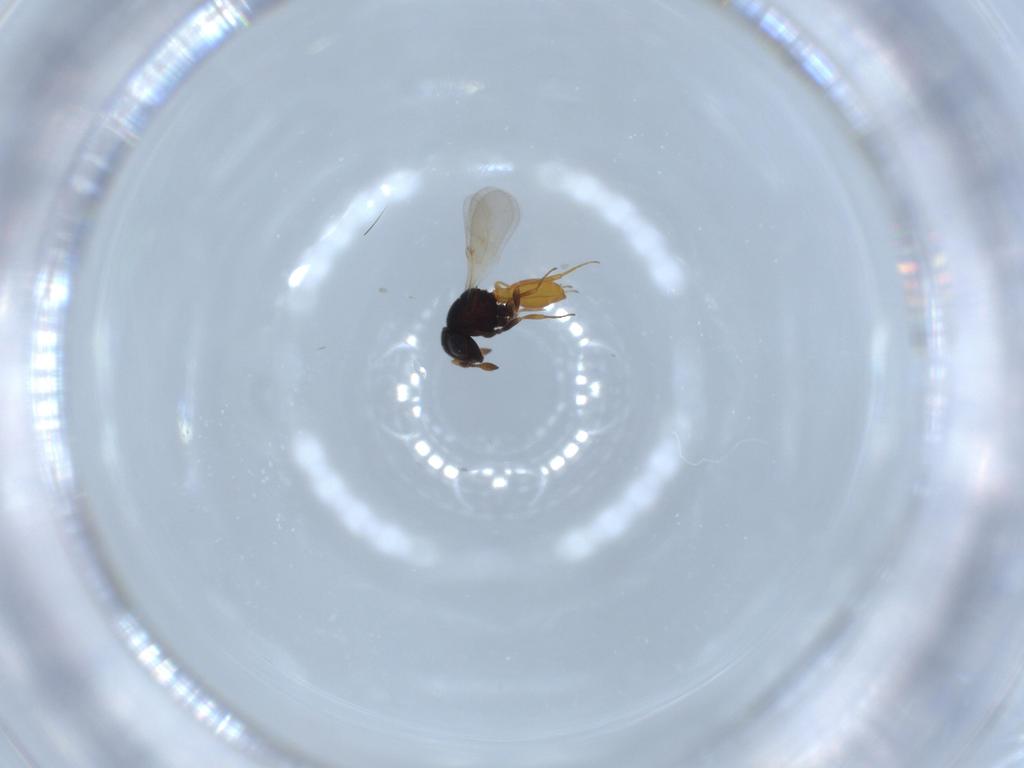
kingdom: Animalia
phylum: Arthropoda
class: Insecta
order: Hymenoptera
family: Scelionidae
